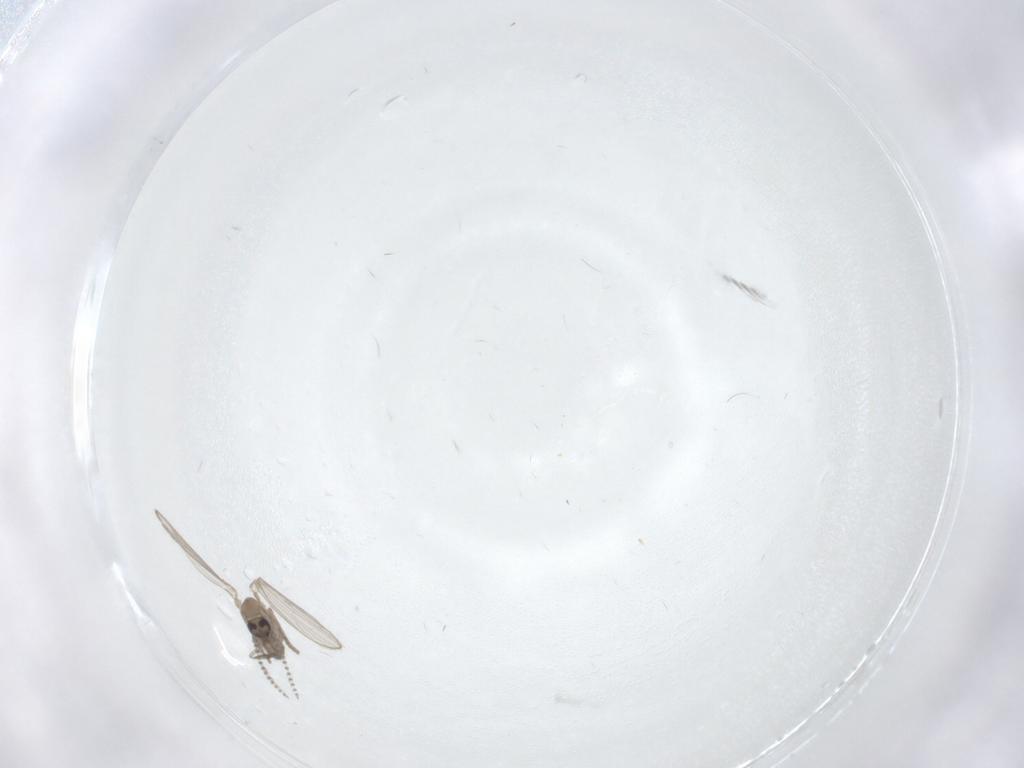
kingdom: Animalia
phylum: Arthropoda
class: Insecta
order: Diptera
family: Psychodidae
